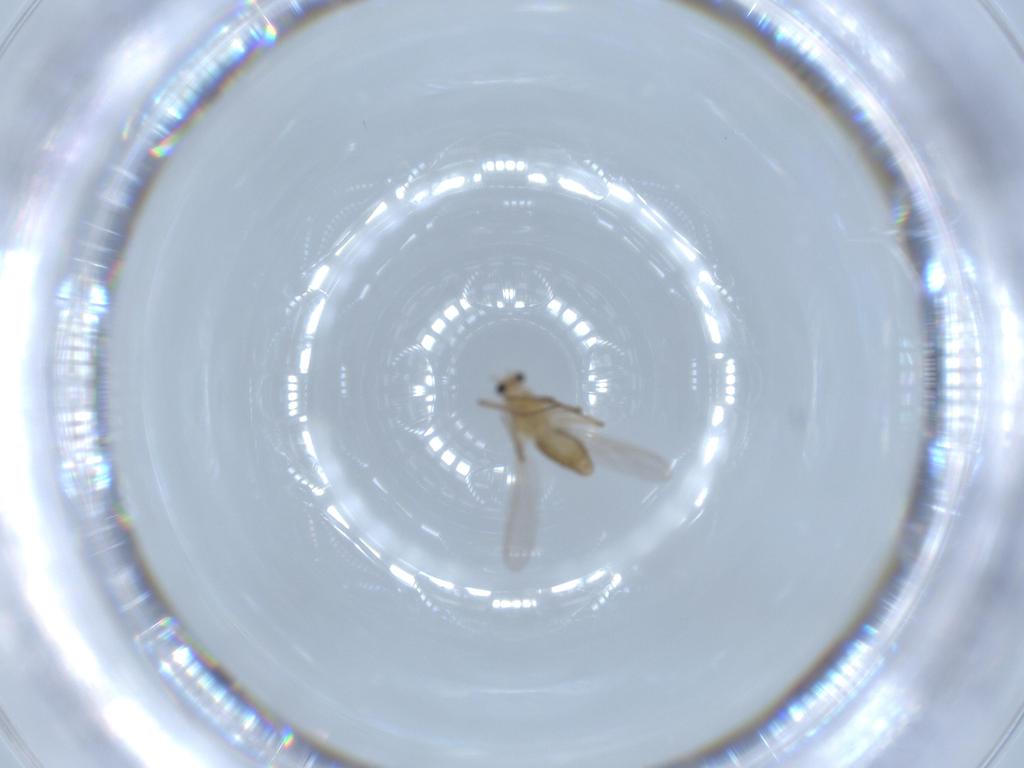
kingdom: Animalia
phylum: Arthropoda
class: Insecta
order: Diptera
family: Chironomidae
